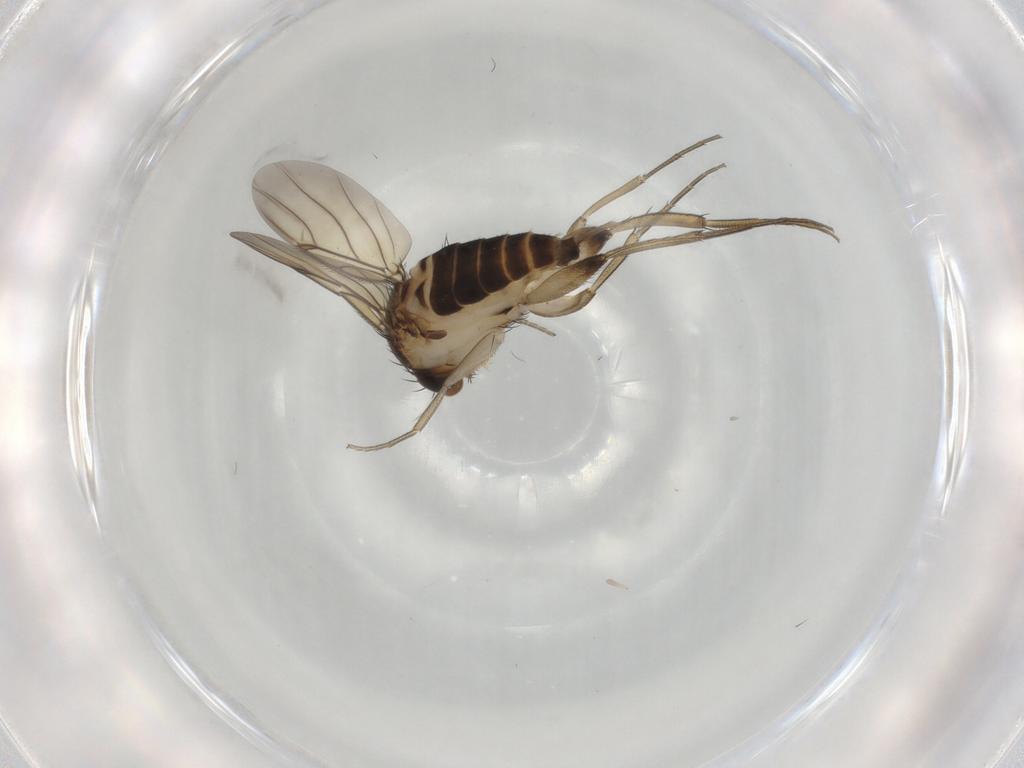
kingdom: Animalia
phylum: Arthropoda
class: Insecta
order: Diptera
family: Phoridae
